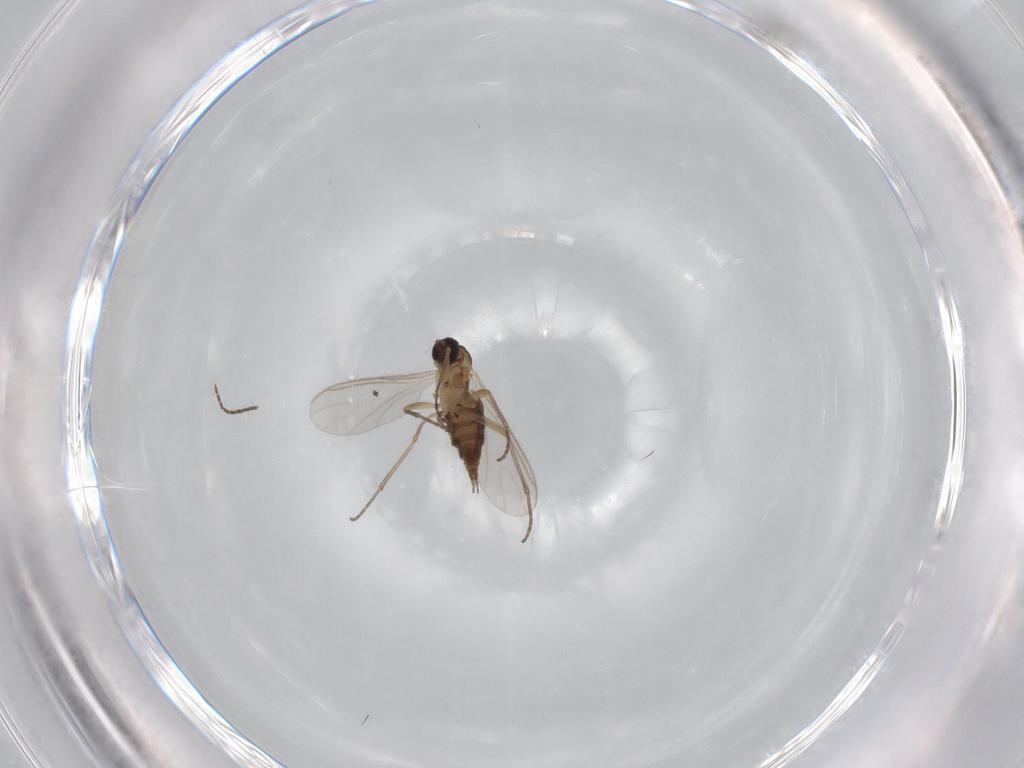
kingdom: Animalia
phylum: Arthropoda
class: Insecta
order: Diptera
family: Sciaridae
